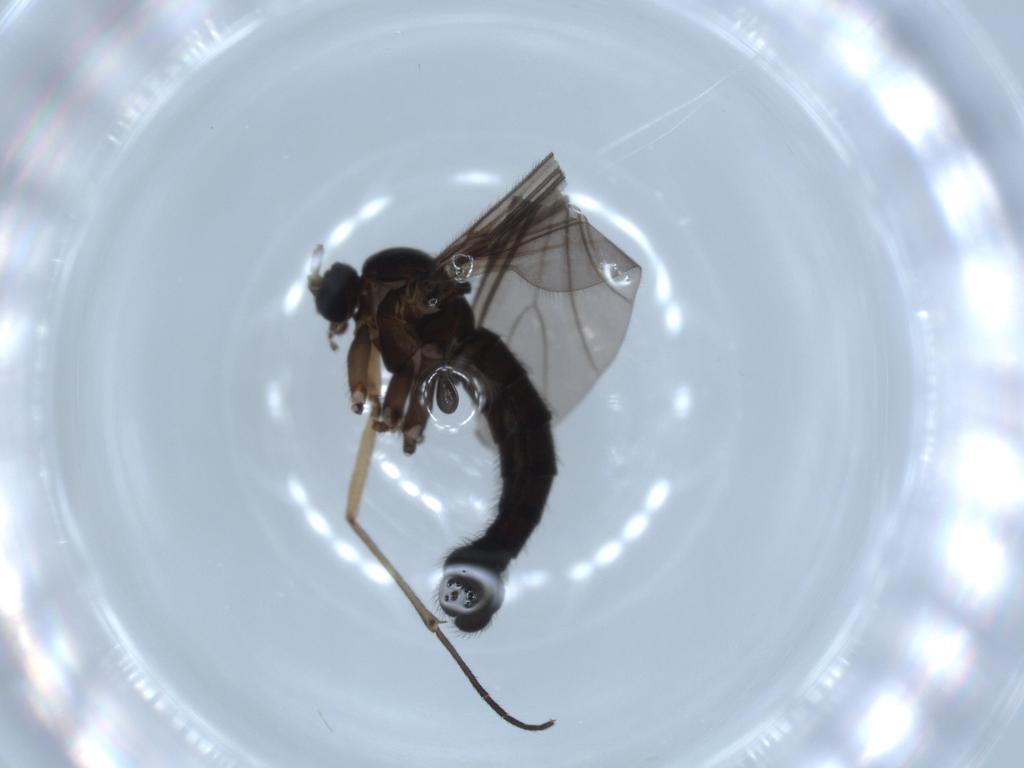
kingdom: Animalia
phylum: Arthropoda
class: Insecta
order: Diptera
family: Sciaridae
